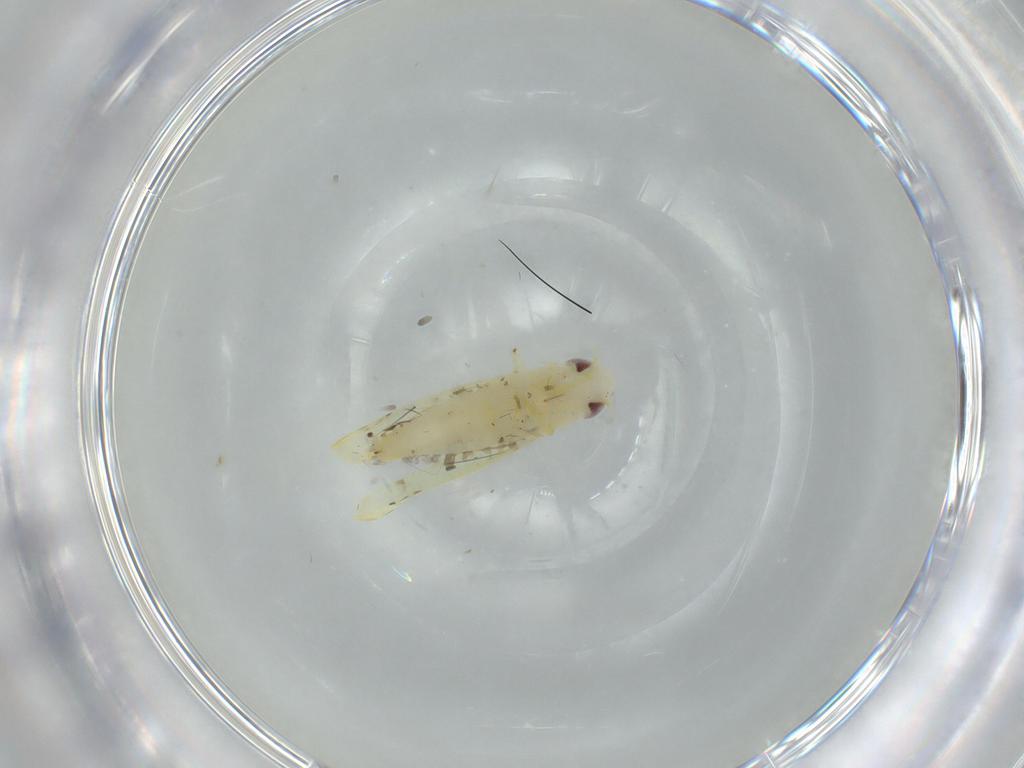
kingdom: Animalia
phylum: Arthropoda
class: Insecta
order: Hemiptera
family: Cicadellidae
